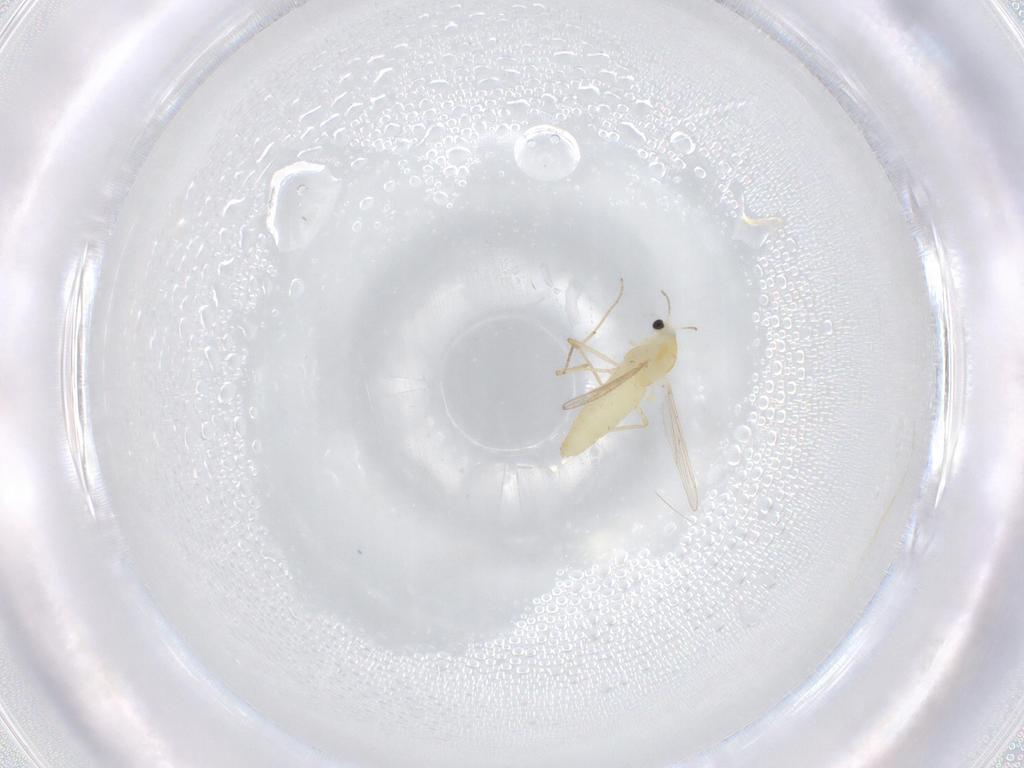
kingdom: Animalia
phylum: Arthropoda
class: Insecta
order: Diptera
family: Chironomidae
